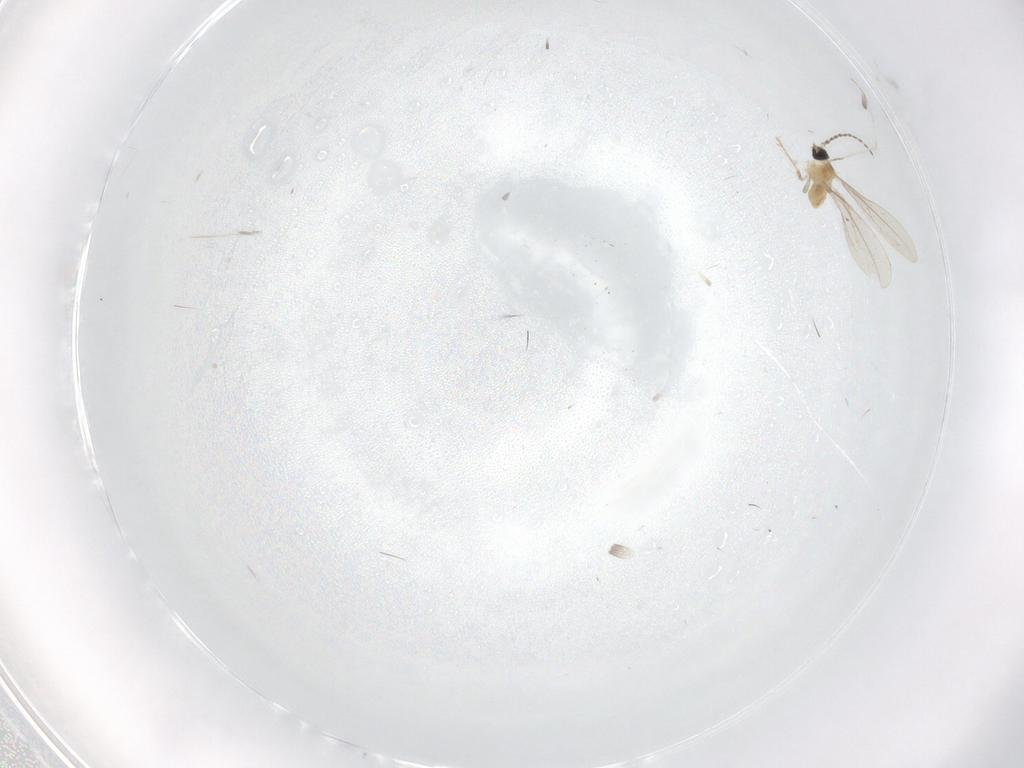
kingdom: Animalia
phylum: Arthropoda
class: Insecta
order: Diptera
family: Cecidomyiidae
